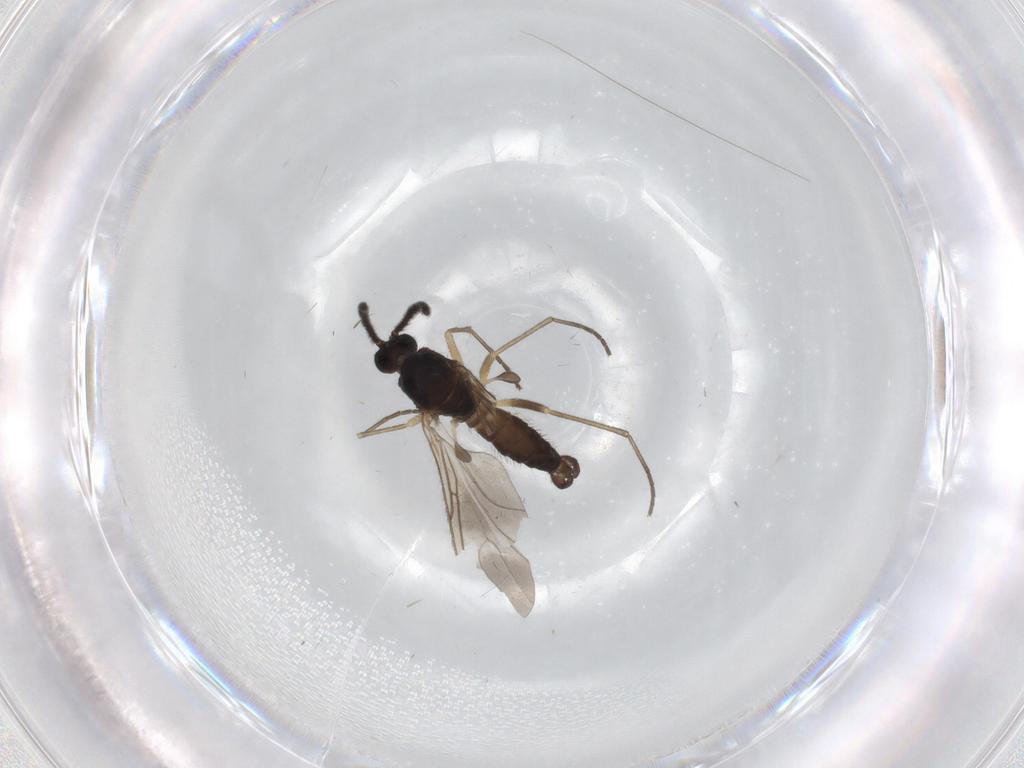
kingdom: Animalia
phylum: Arthropoda
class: Insecta
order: Diptera
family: Sciaridae
